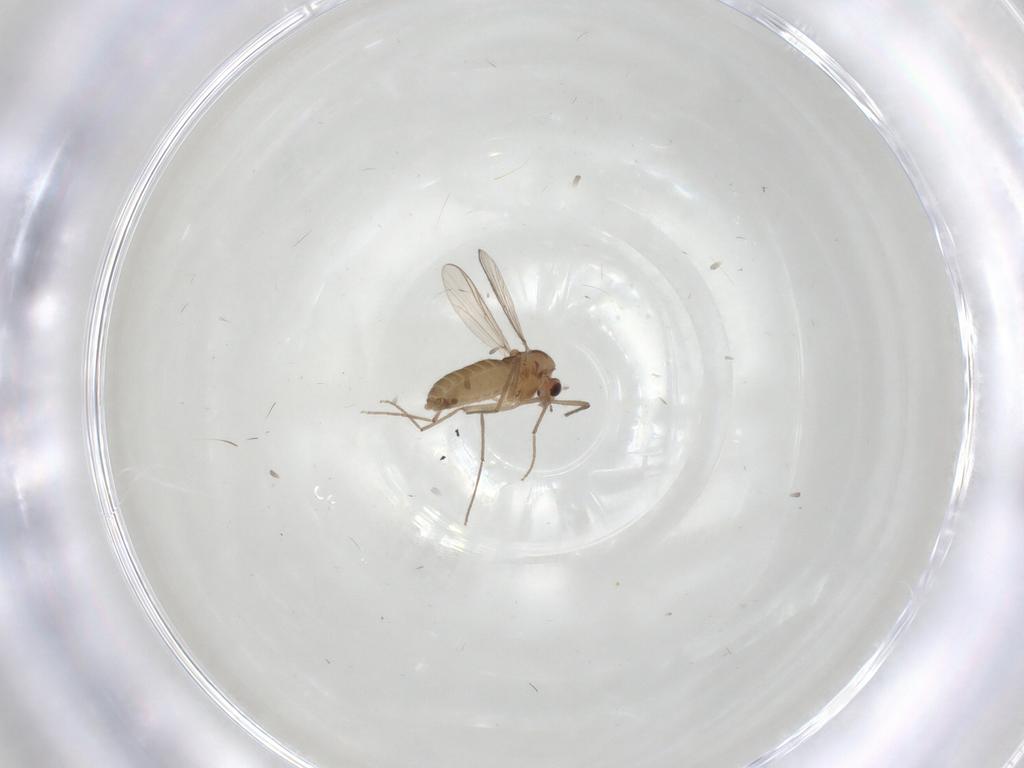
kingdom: Animalia
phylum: Arthropoda
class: Insecta
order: Diptera
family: Chironomidae
